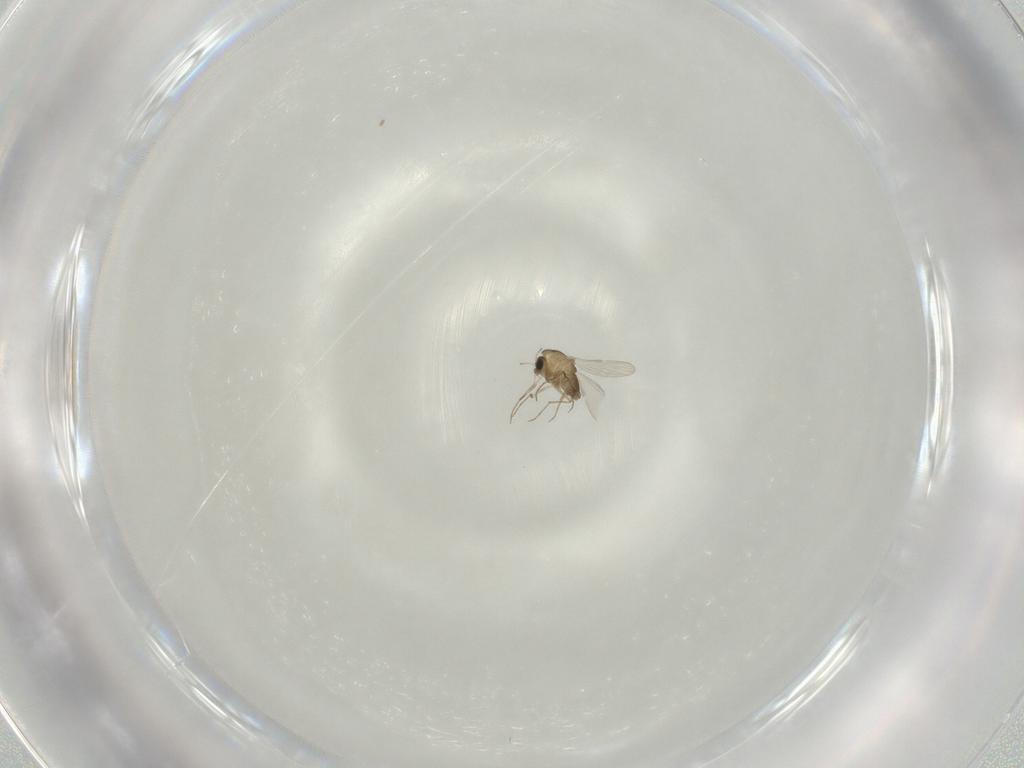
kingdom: Animalia
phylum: Arthropoda
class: Insecta
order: Diptera
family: Chironomidae
